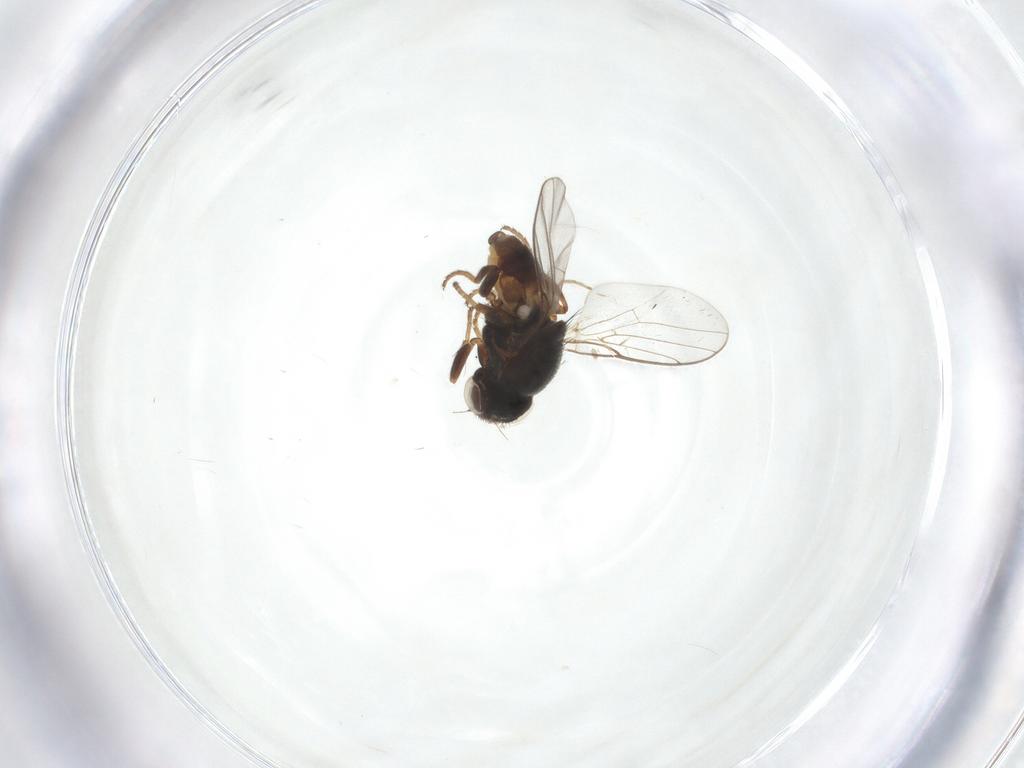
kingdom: Animalia
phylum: Arthropoda
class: Insecta
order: Diptera
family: Chloropidae
